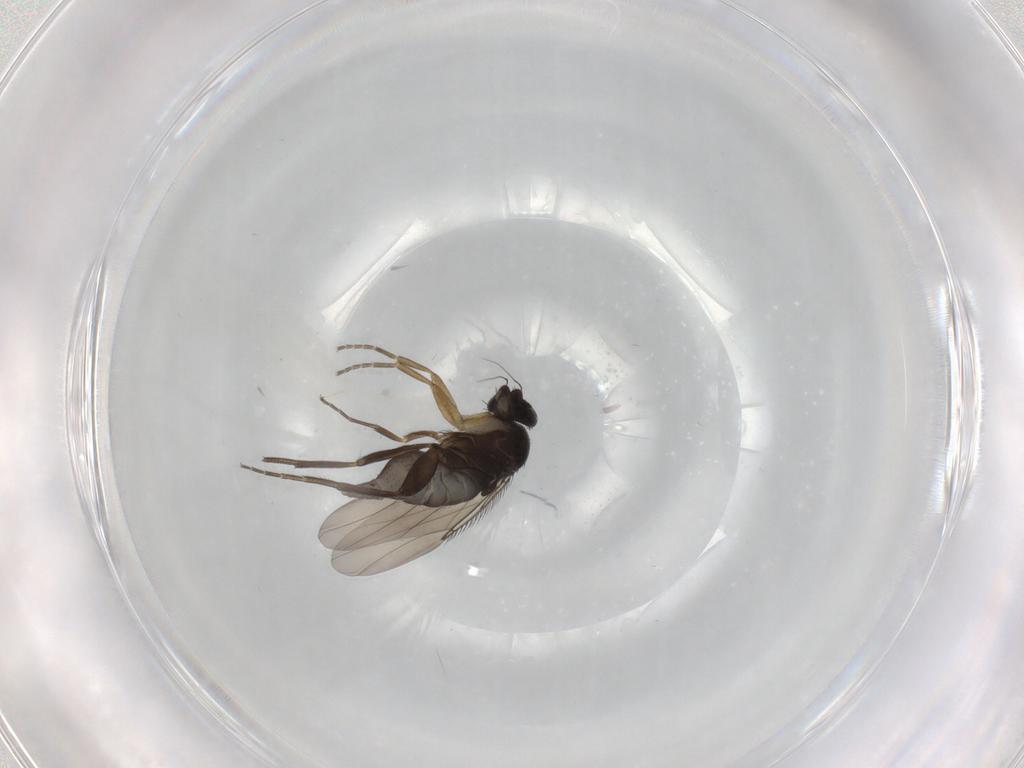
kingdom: Animalia
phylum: Arthropoda
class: Insecta
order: Diptera
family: Phoridae
